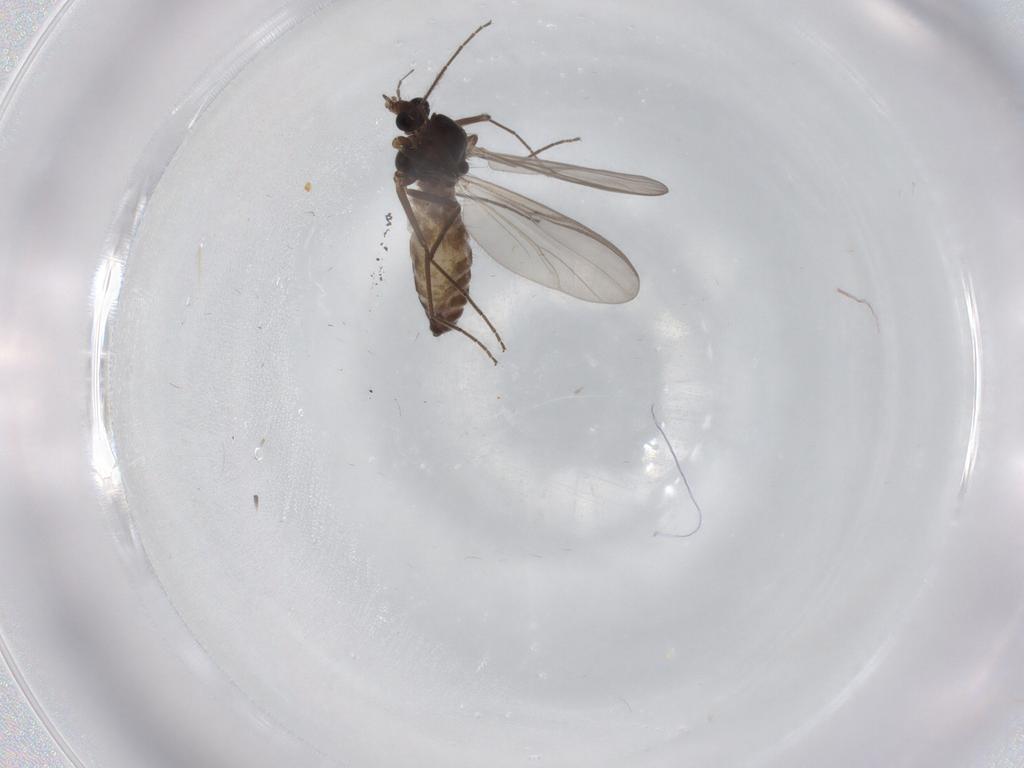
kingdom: Animalia
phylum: Arthropoda
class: Insecta
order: Diptera
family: Chironomidae
